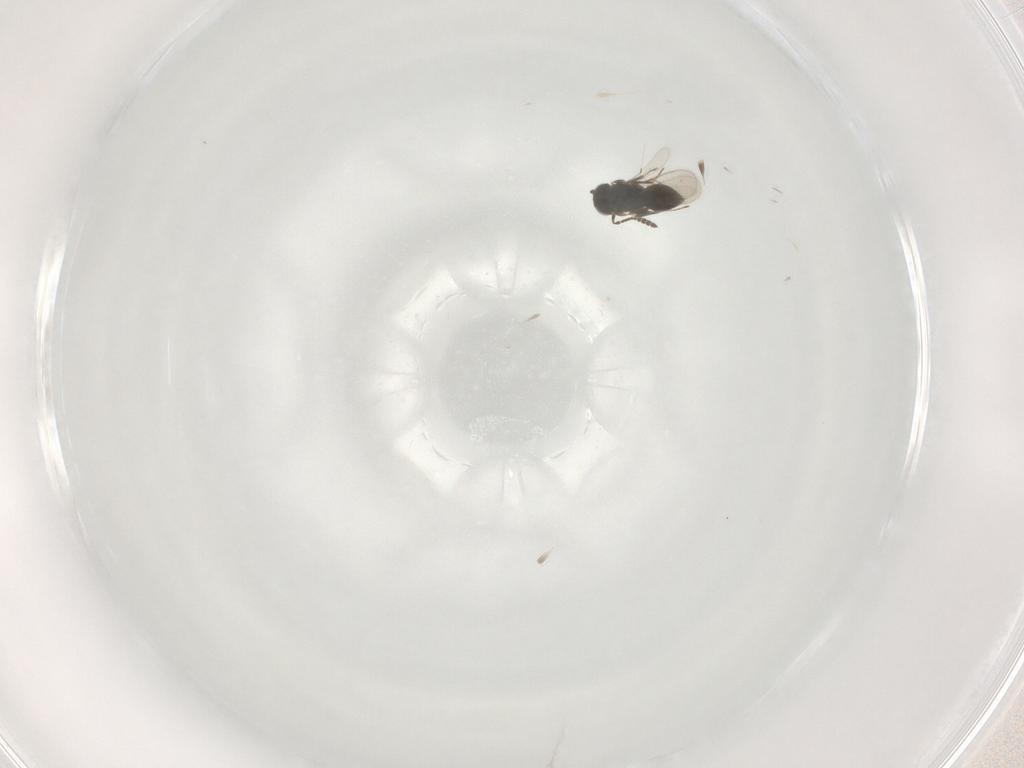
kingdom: Animalia
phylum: Arthropoda
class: Insecta
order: Hymenoptera
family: Scelionidae
